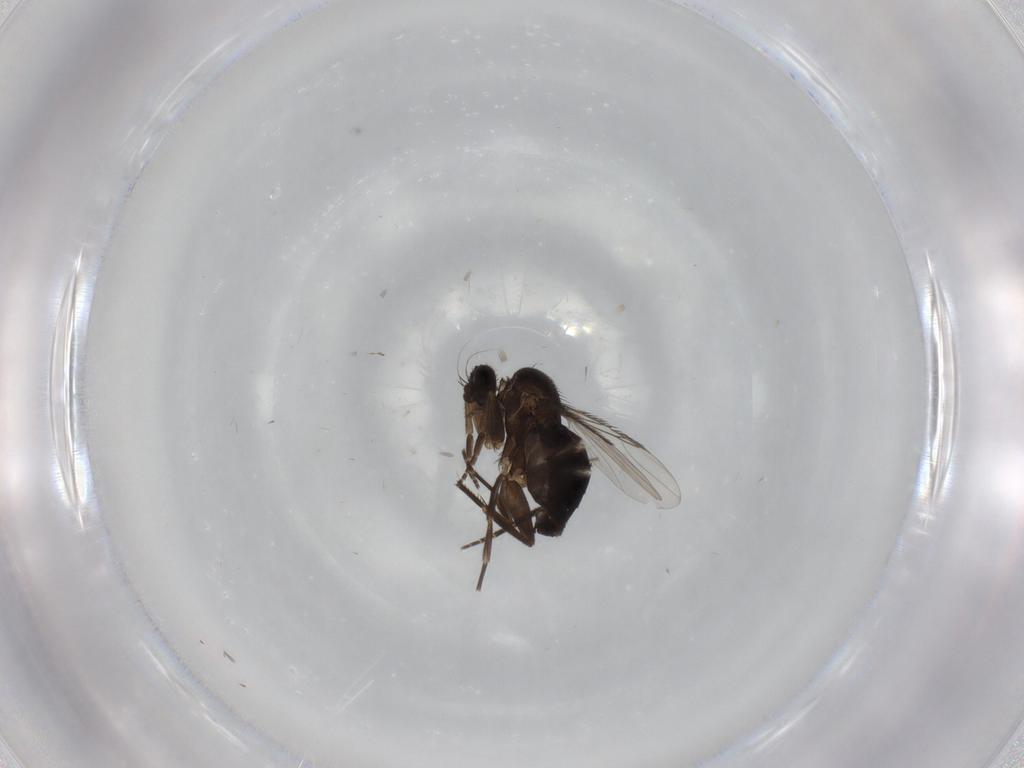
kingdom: Animalia
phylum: Arthropoda
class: Insecta
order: Diptera
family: Phoridae
